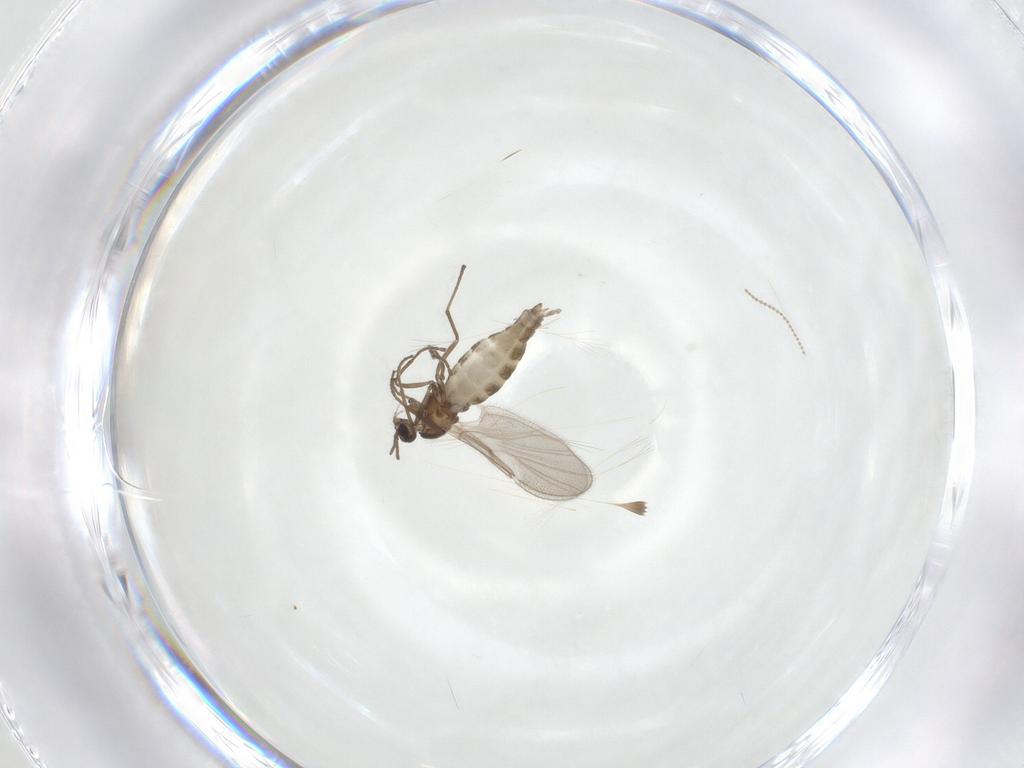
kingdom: Animalia
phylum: Arthropoda
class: Insecta
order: Diptera
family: Cecidomyiidae
